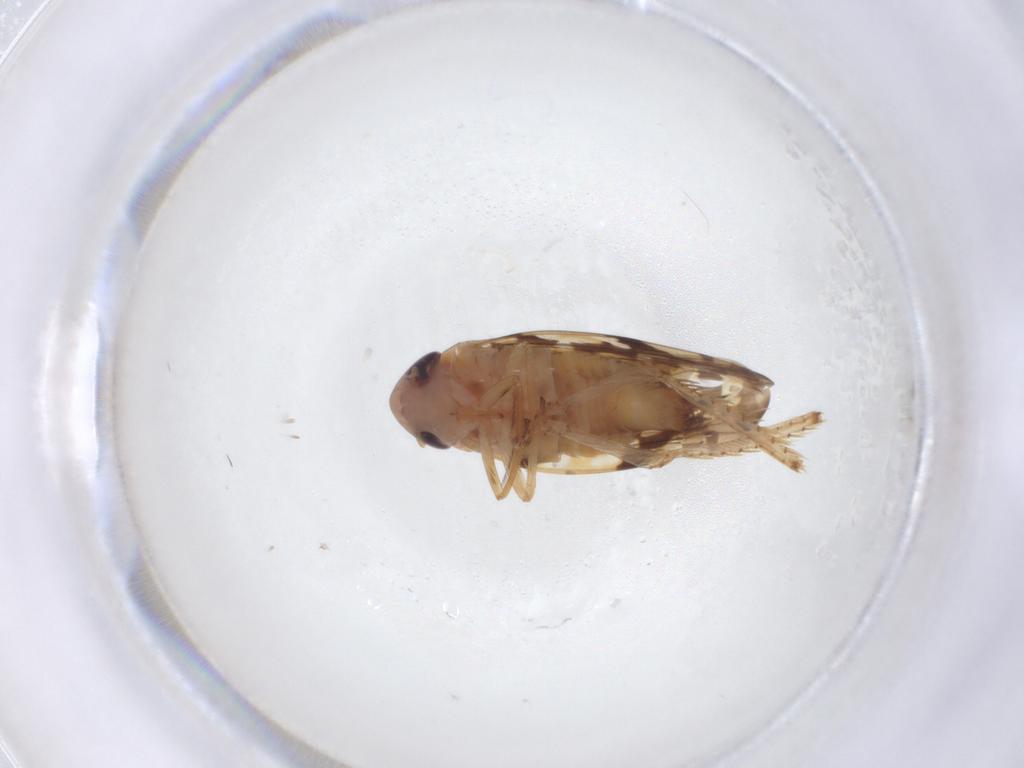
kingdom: Animalia
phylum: Arthropoda
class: Insecta
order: Hemiptera
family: Cicadellidae
